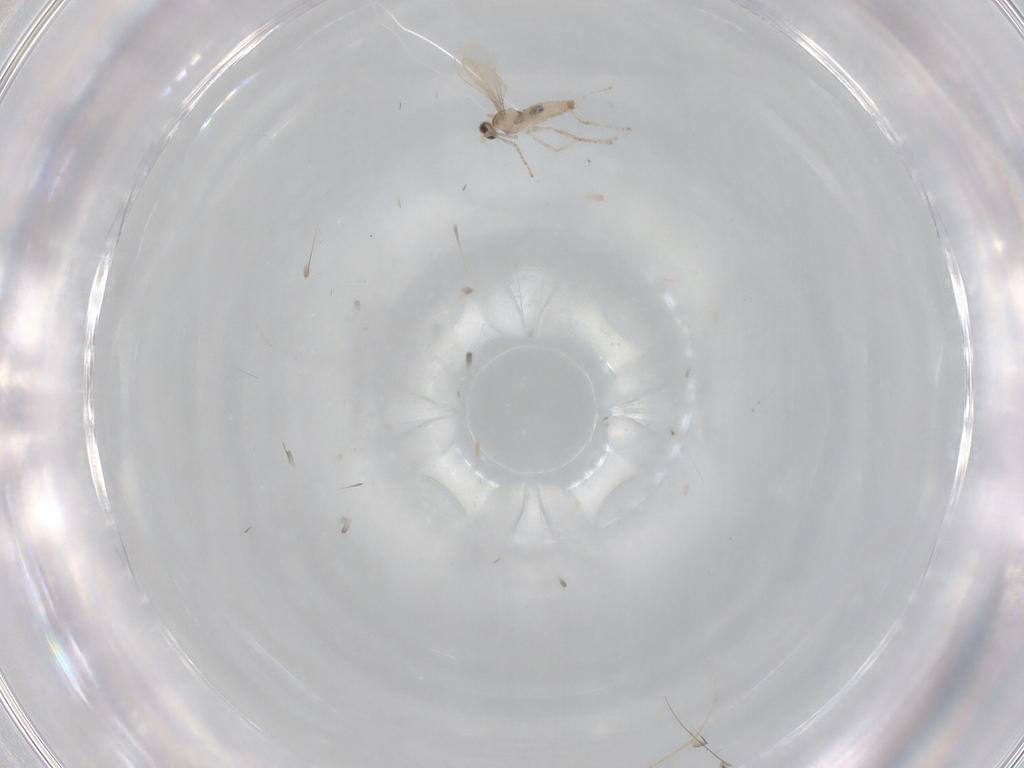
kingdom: Animalia
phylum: Arthropoda
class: Insecta
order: Diptera
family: Cecidomyiidae
